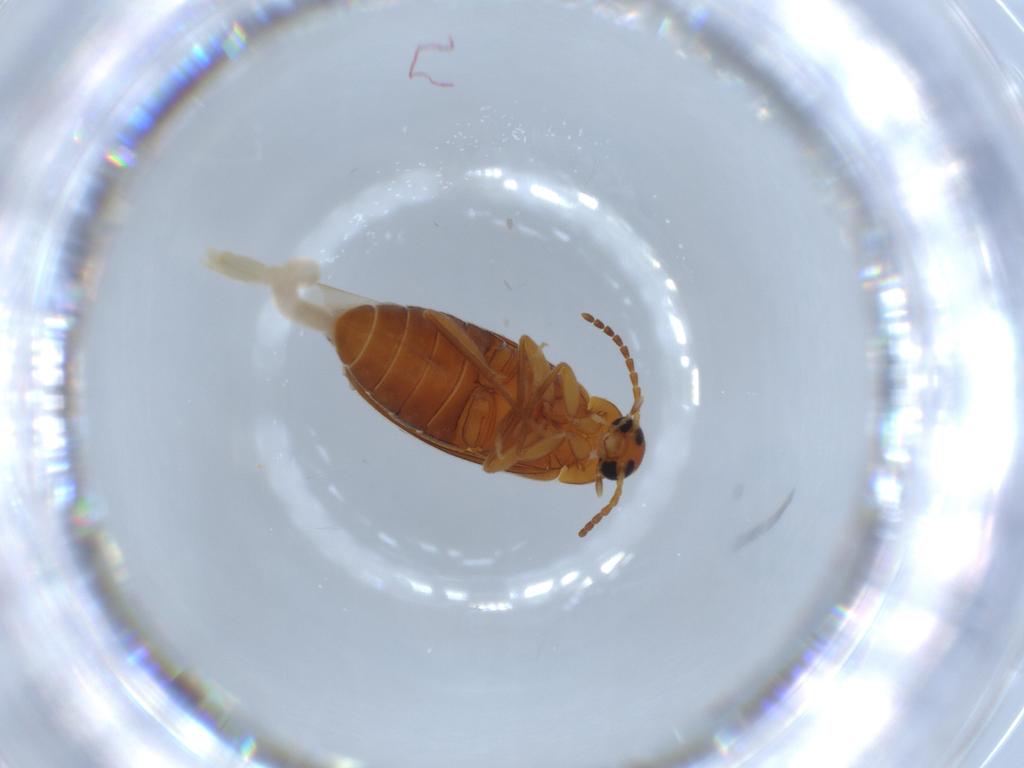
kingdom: Animalia
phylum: Arthropoda
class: Insecta
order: Coleoptera
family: Scraptiidae
